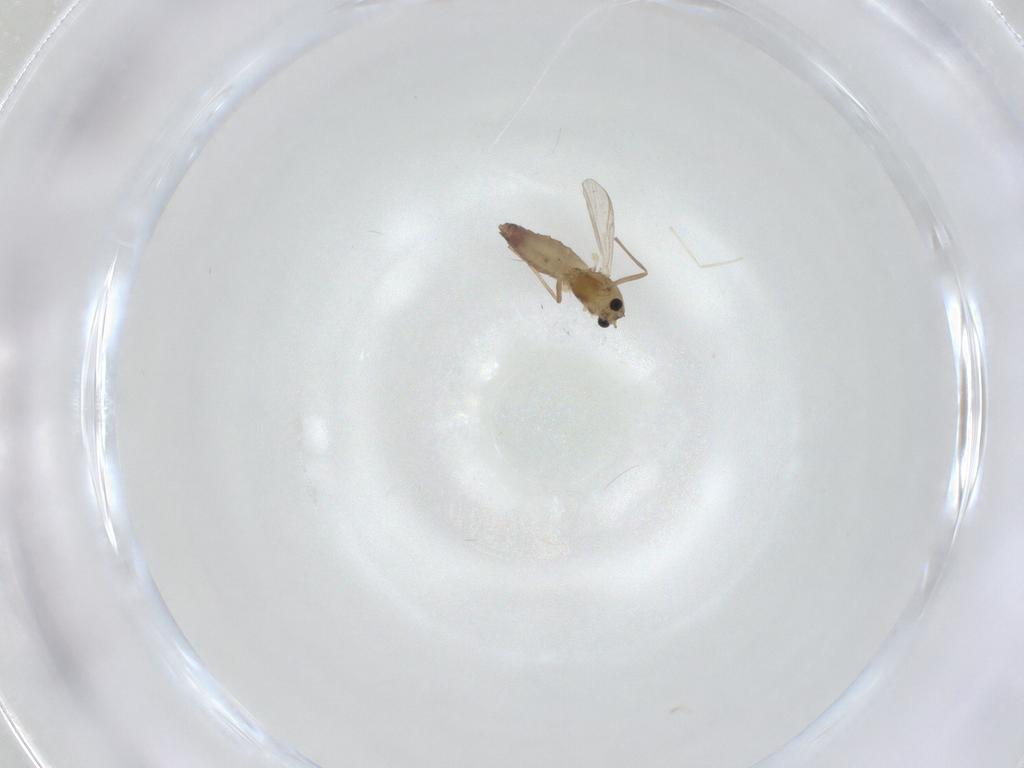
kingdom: Animalia
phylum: Arthropoda
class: Insecta
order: Diptera
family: Chironomidae
